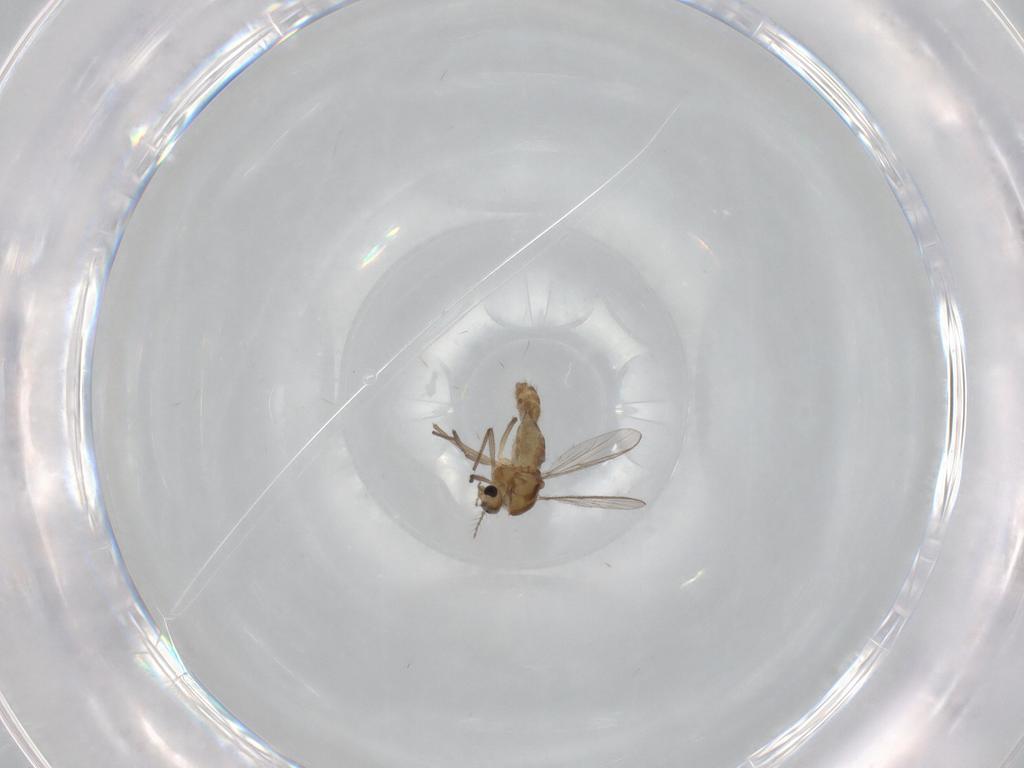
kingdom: Animalia
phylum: Arthropoda
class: Insecta
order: Diptera
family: Chironomidae
